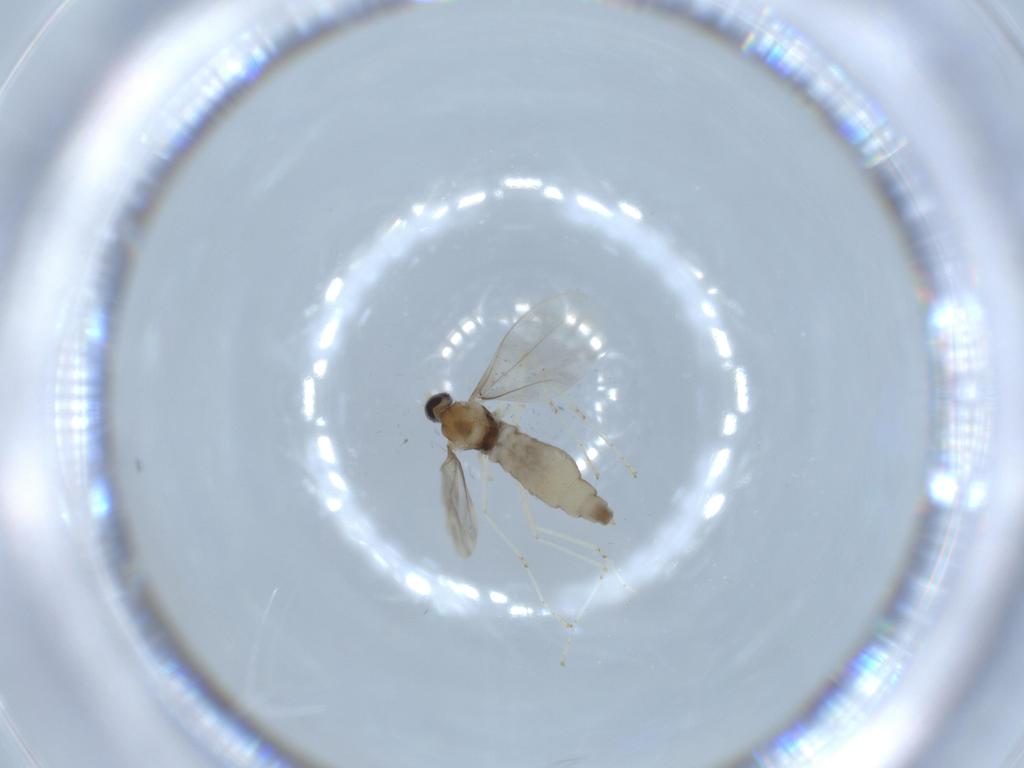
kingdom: Animalia
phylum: Arthropoda
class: Insecta
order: Diptera
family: Cecidomyiidae
